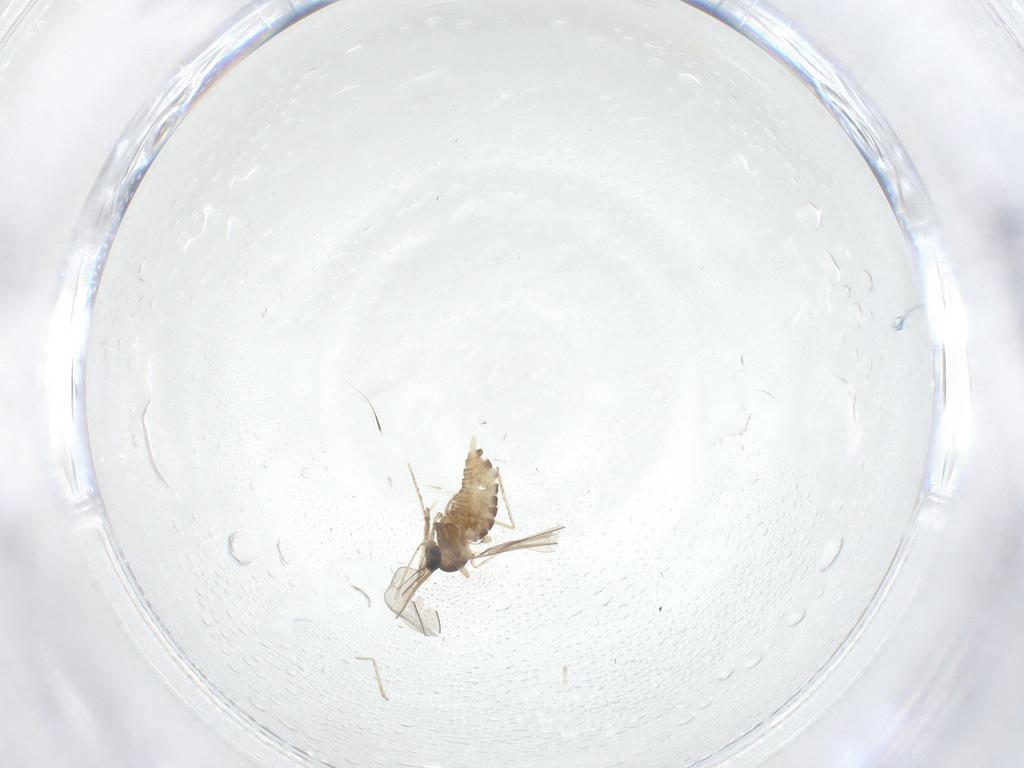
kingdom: Animalia
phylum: Arthropoda
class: Insecta
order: Diptera
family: Cecidomyiidae
